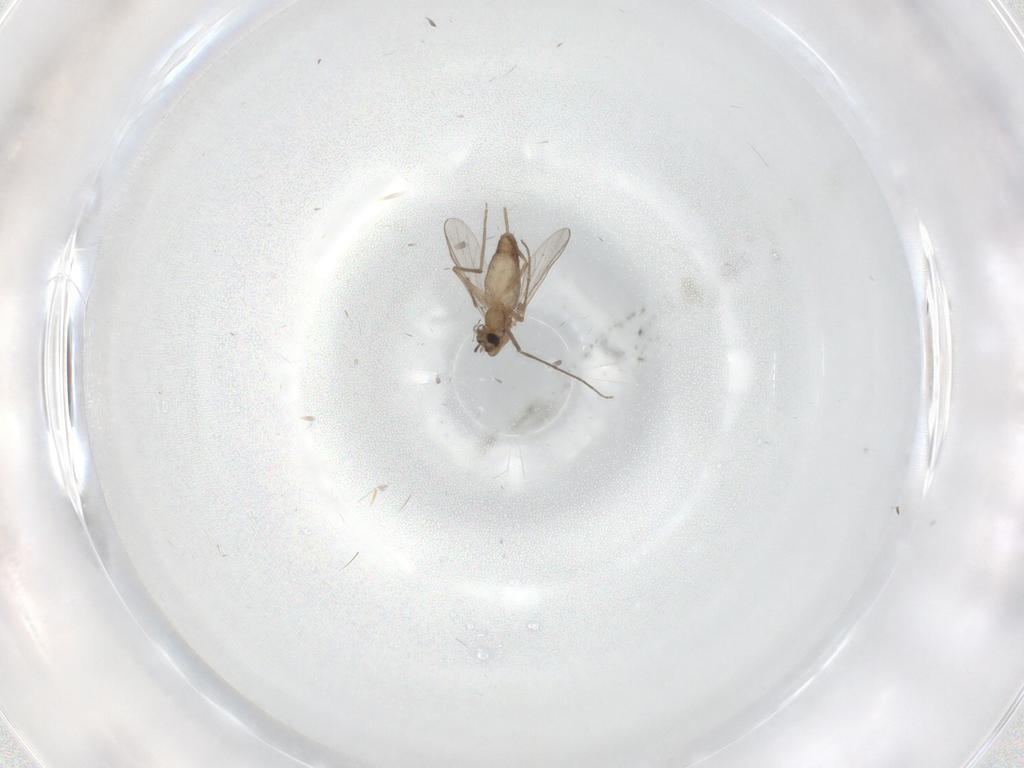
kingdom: Animalia
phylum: Arthropoda
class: Insecta
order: Diptera
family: Chironomidae
